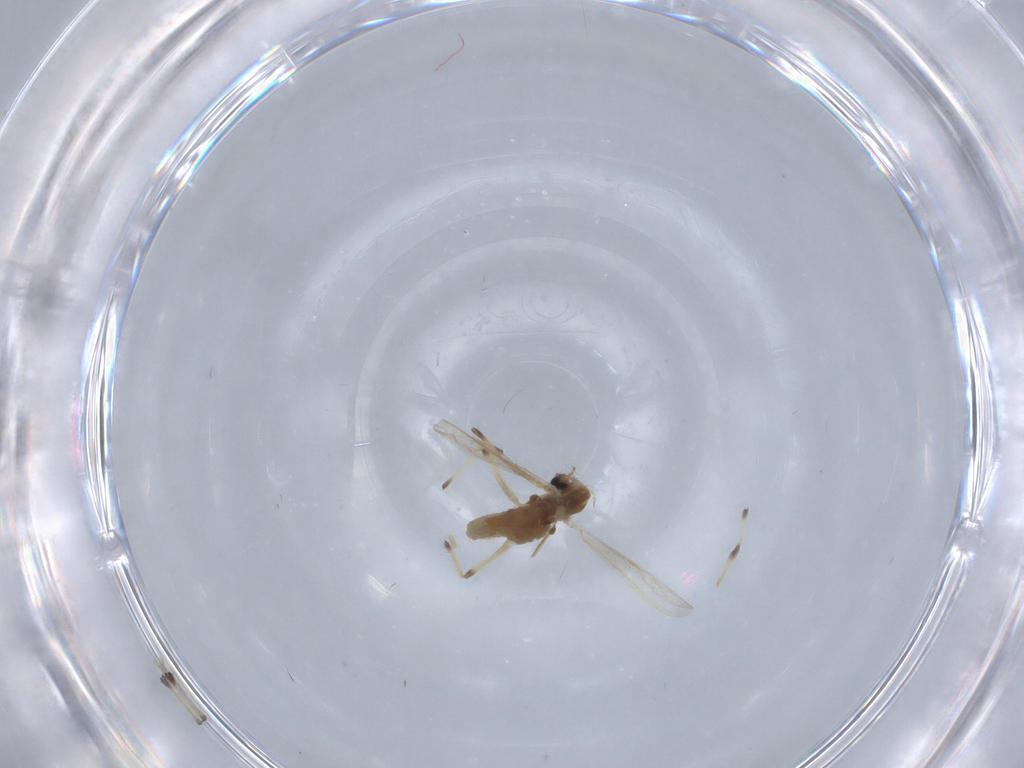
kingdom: Animalia
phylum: Arthropoda
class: Insecta
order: Diptera
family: Chironomidae
